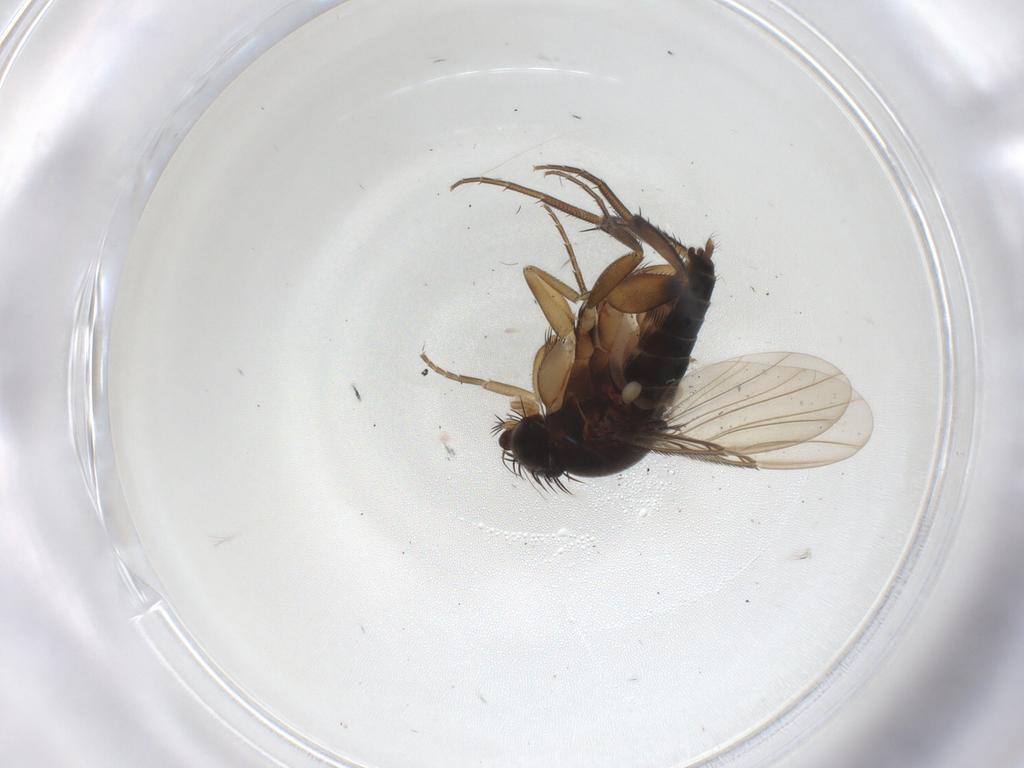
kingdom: Animalia
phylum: Arthropoda
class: Insecta
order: Diptera
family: Phoridae
